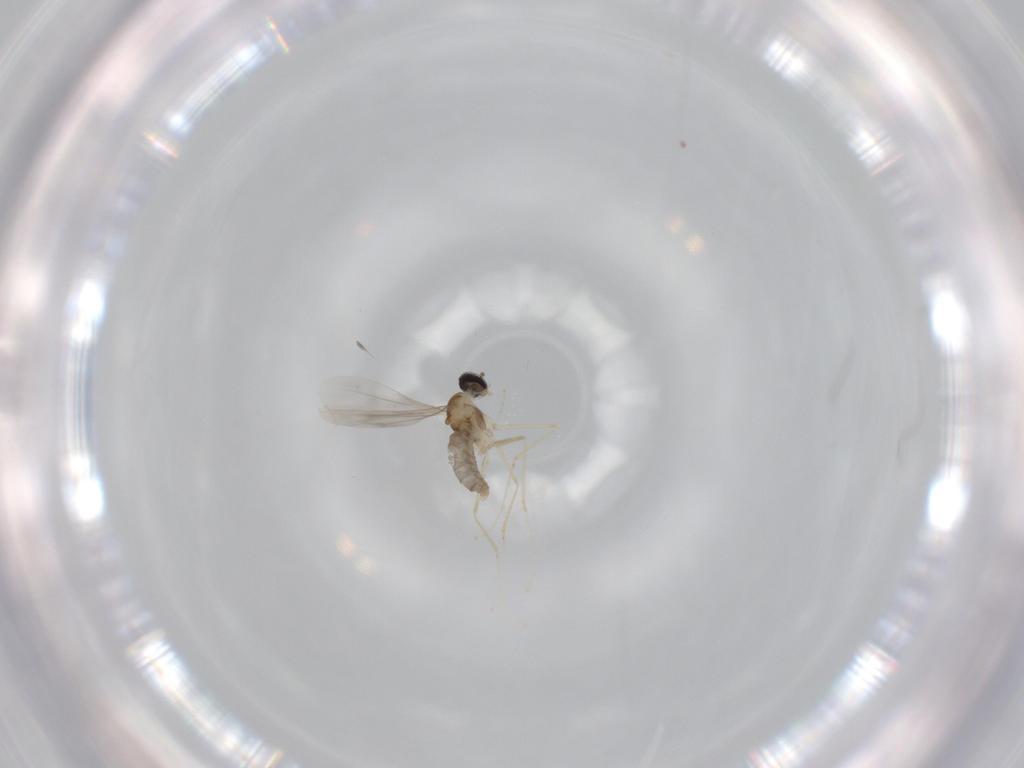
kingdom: Animalia
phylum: Arthropoda
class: Insecta
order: Diptera
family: Cecidomyiidae
